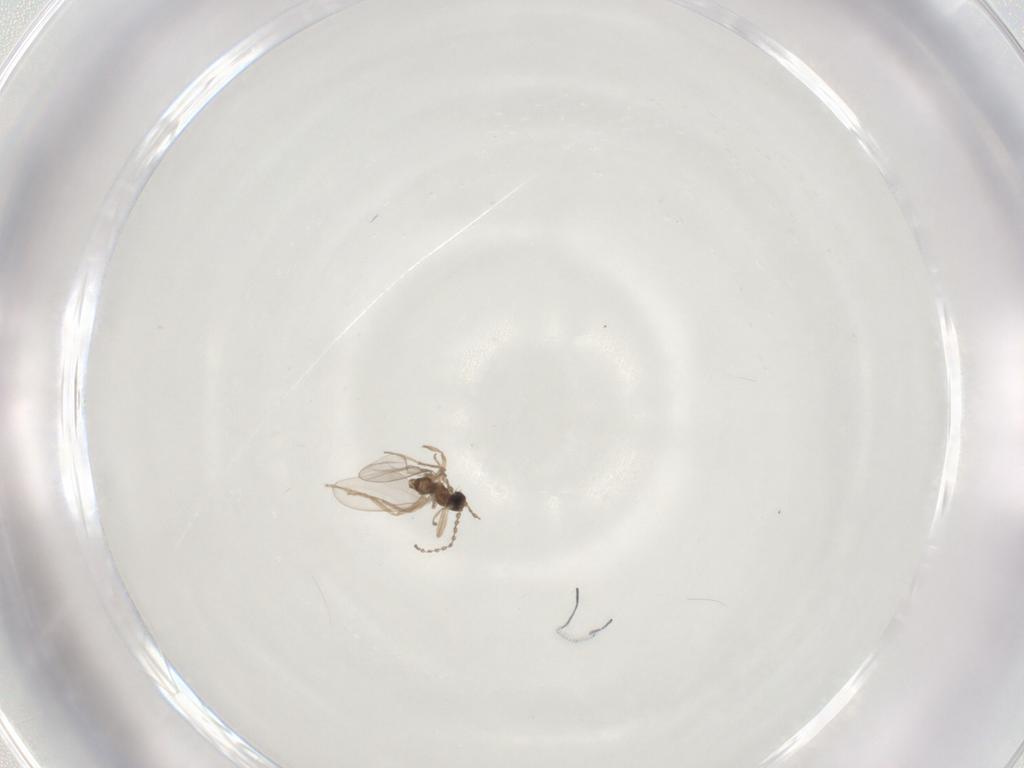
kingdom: Animalia
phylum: Arthropoda
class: Insecta
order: Diptera
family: Cecidomyiidae
